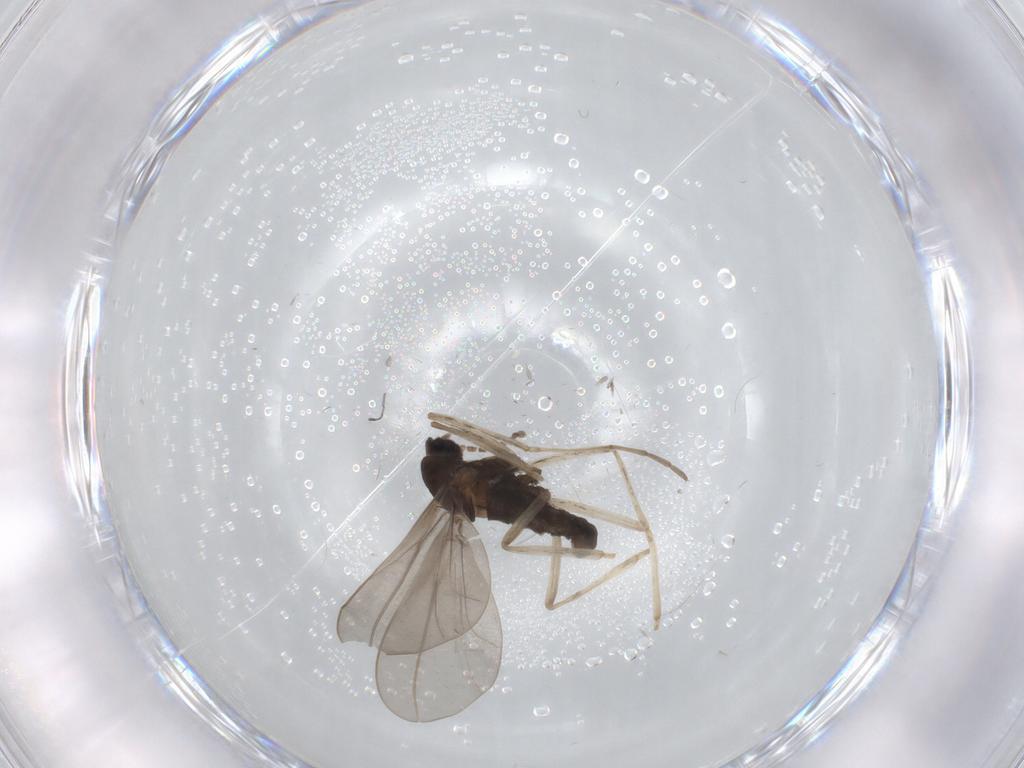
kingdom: Animalia
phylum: Arthropoda
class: Insecta
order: Diptera
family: Cecidomyiidae
